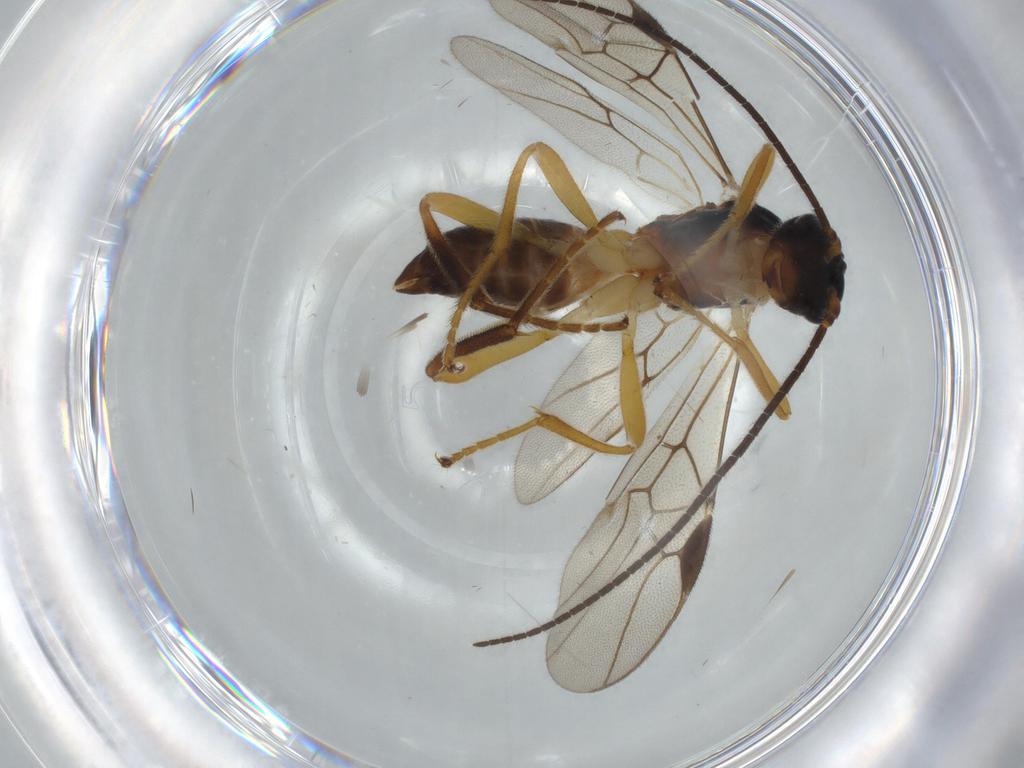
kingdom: Animalia
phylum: Arthropoda
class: Insecta
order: Hymenoptera
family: Braconidae
